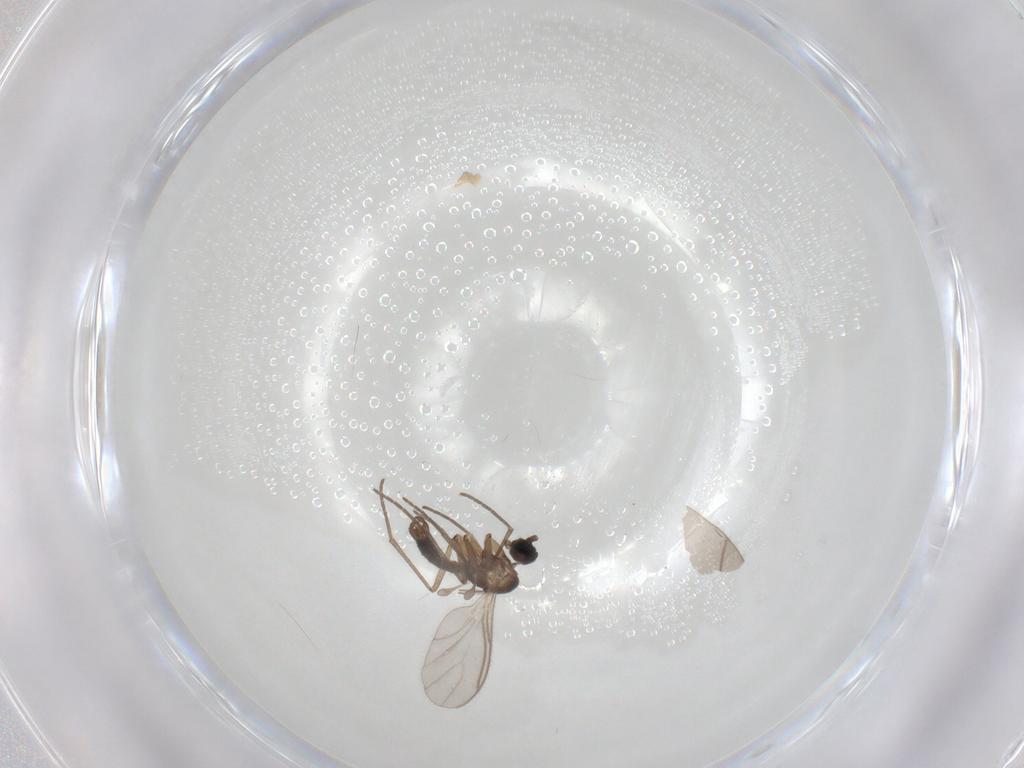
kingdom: Animalia
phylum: Arthropoda
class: Insecta
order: Diptera
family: Sciaridae
